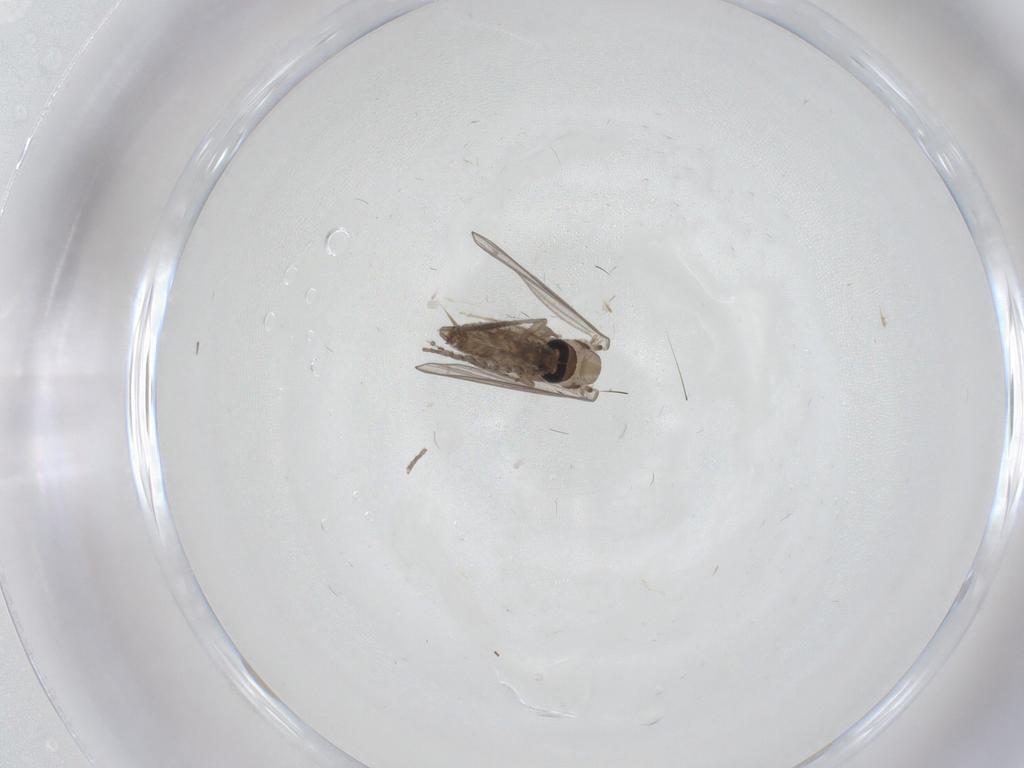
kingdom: Animalia
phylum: Arthropoda
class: Insecta
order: Diptera
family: Psychodidae
